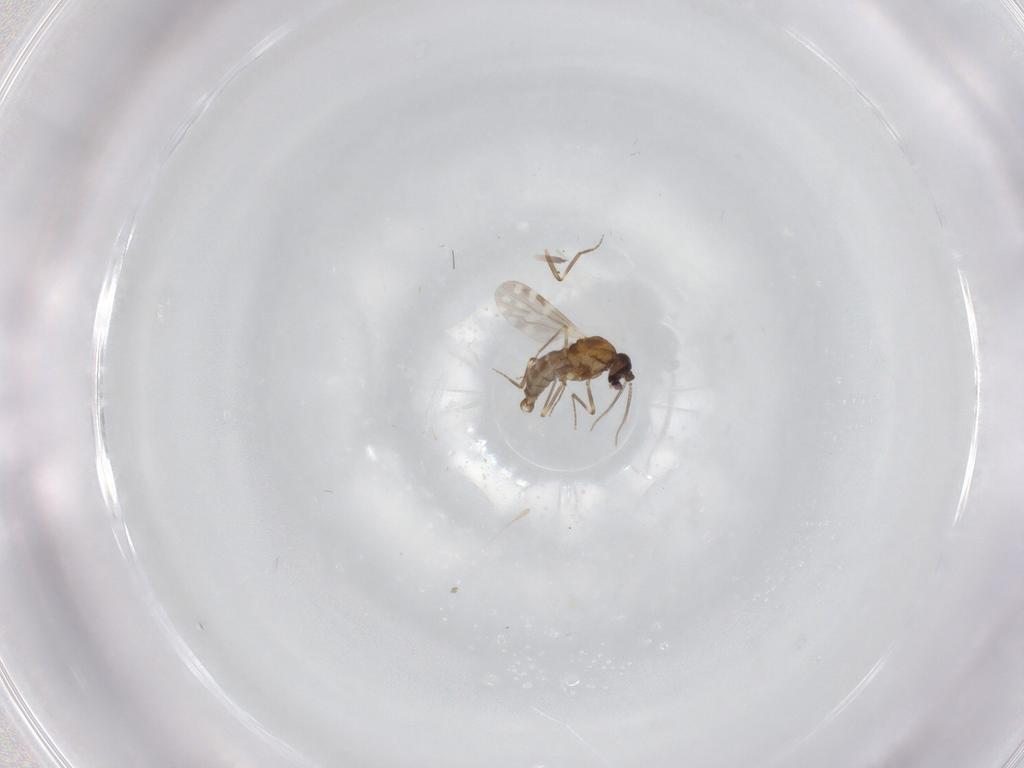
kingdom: Animalia
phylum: Arthropoda
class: Insecta
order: Diptera
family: Ceratopogonidae
